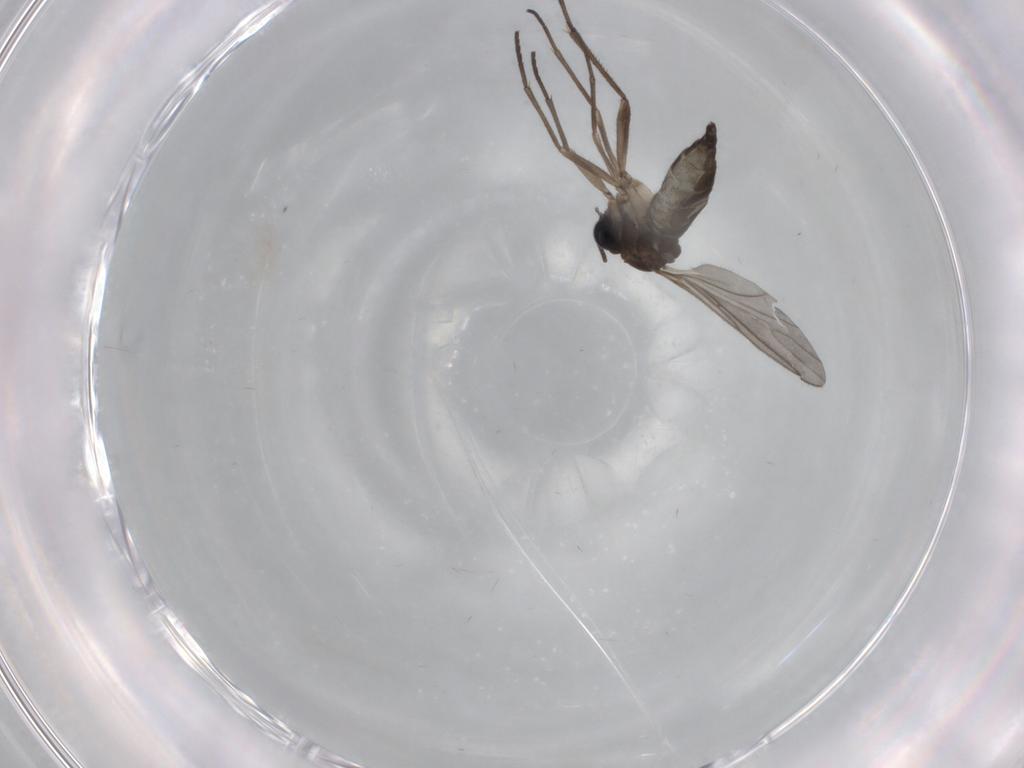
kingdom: Animalia
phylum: Arthropoda
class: Insecta
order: Diptera
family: Sciaridae
